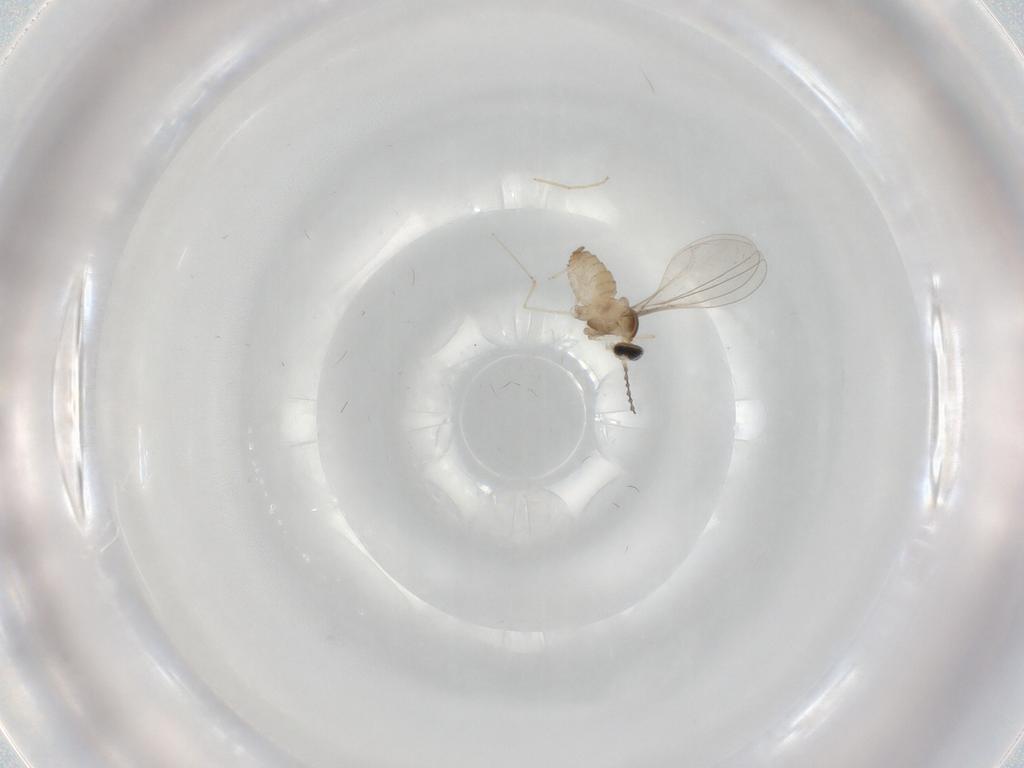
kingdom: Animalia
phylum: Arthropoda
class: Insecta
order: Diptera
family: Cecidomyiidae
